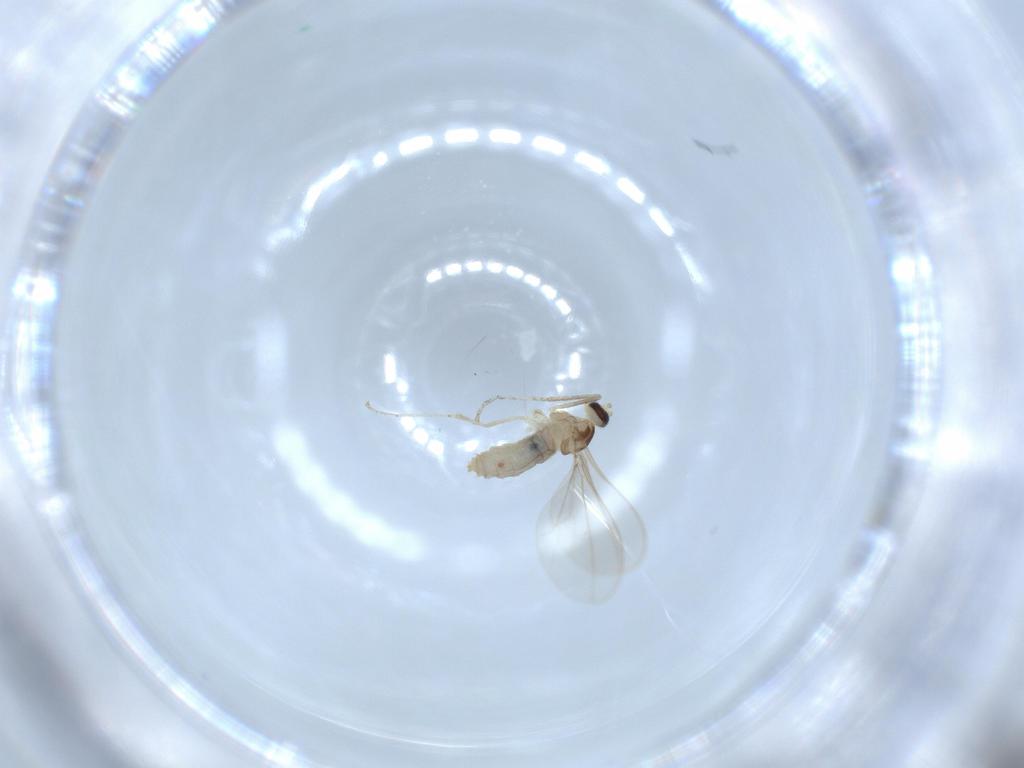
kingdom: Animalia
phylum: Arthropoda
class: Insecta
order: Diptera
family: Cecidomyiidae
